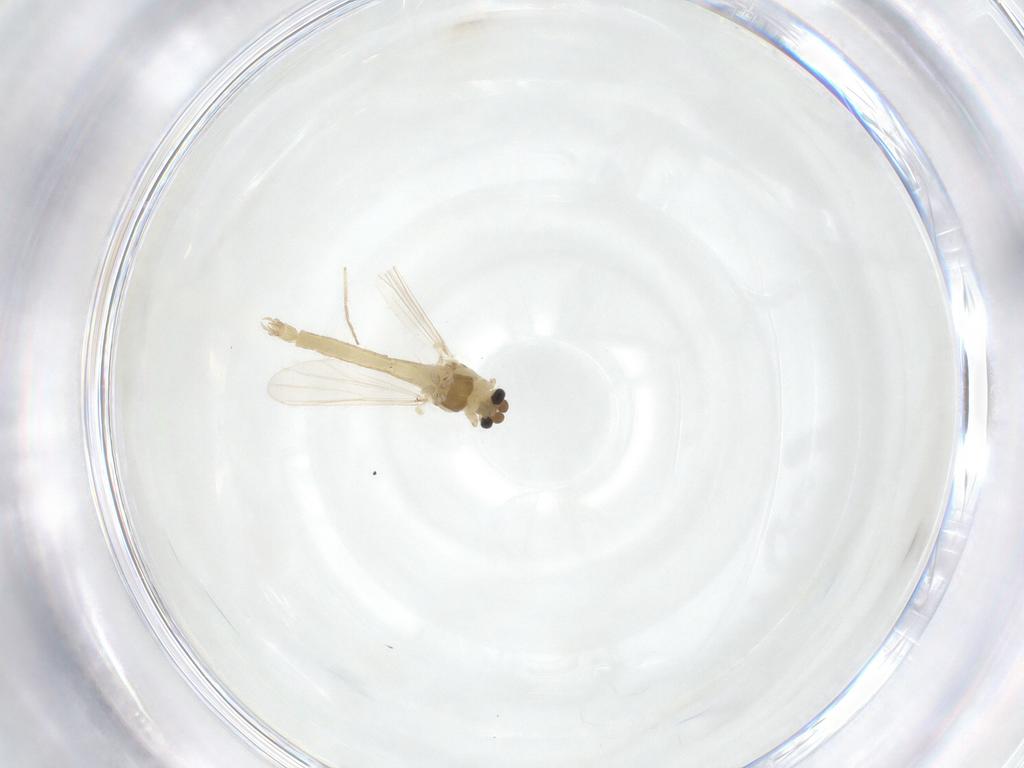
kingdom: Animalia
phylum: Arthropoda
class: Insecta
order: Diptera
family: Chironomidae
